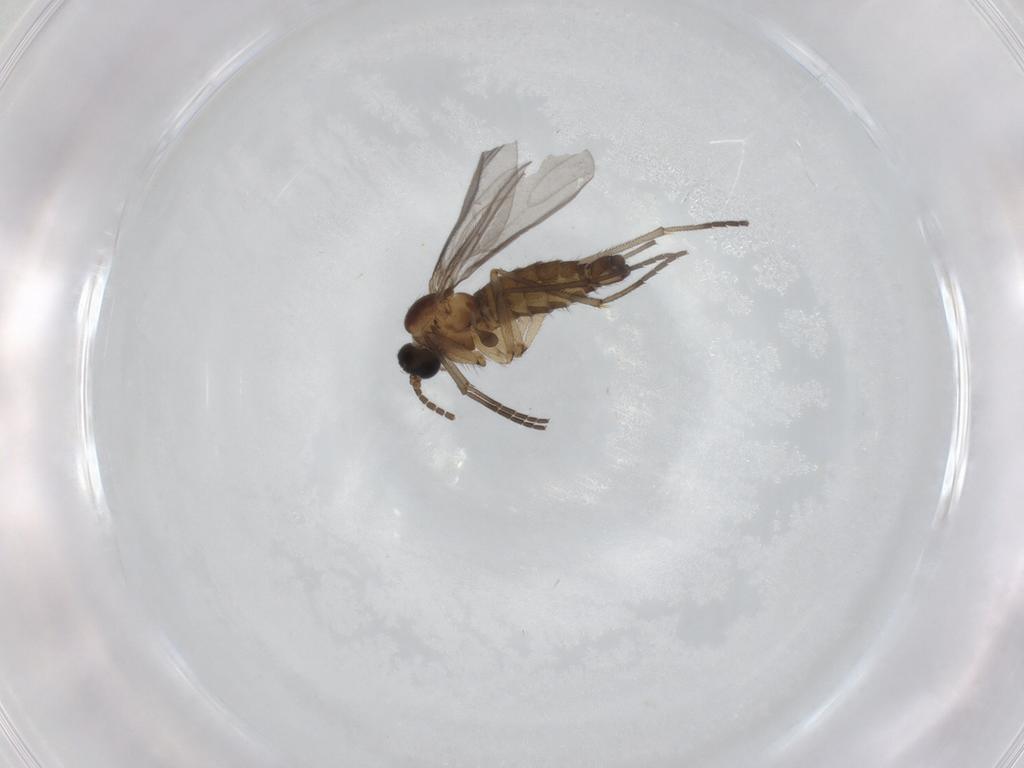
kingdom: Animalia
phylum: Arthropoda
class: Insecta
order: Diptera
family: Sciaridae
